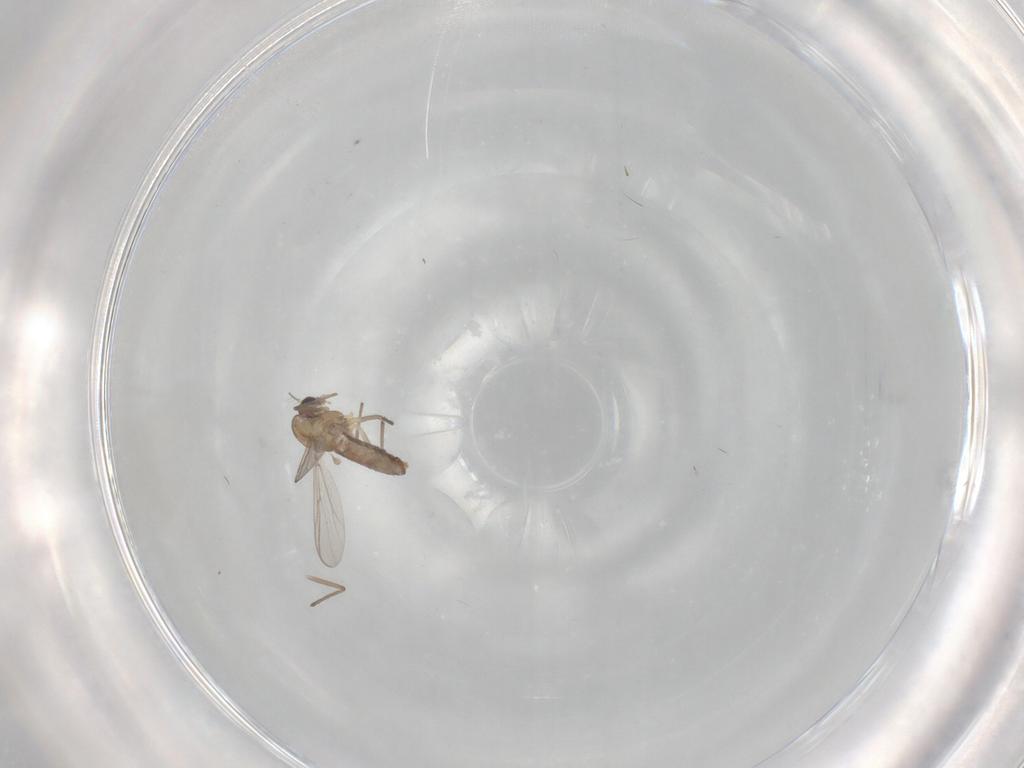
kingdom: Animalia
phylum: Arthropoda
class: Insecta
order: Diptera
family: Chironomidae
